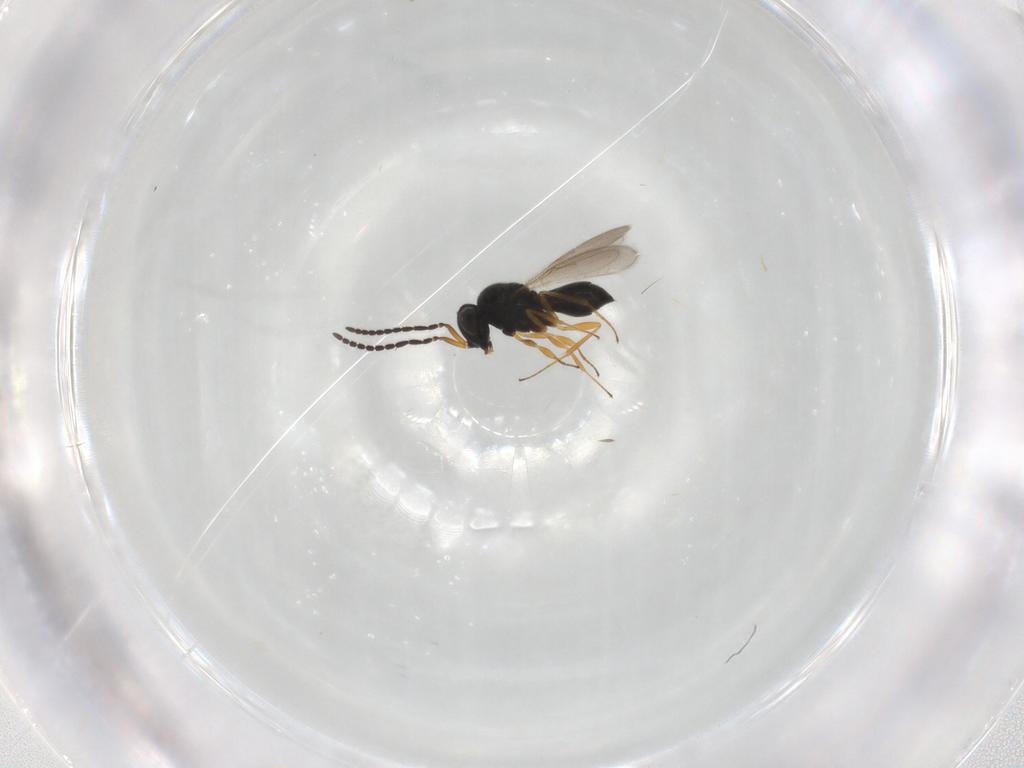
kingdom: Animalia
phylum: Arthropoda
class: Insecta
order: Hymenoptera
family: Scelionidae
